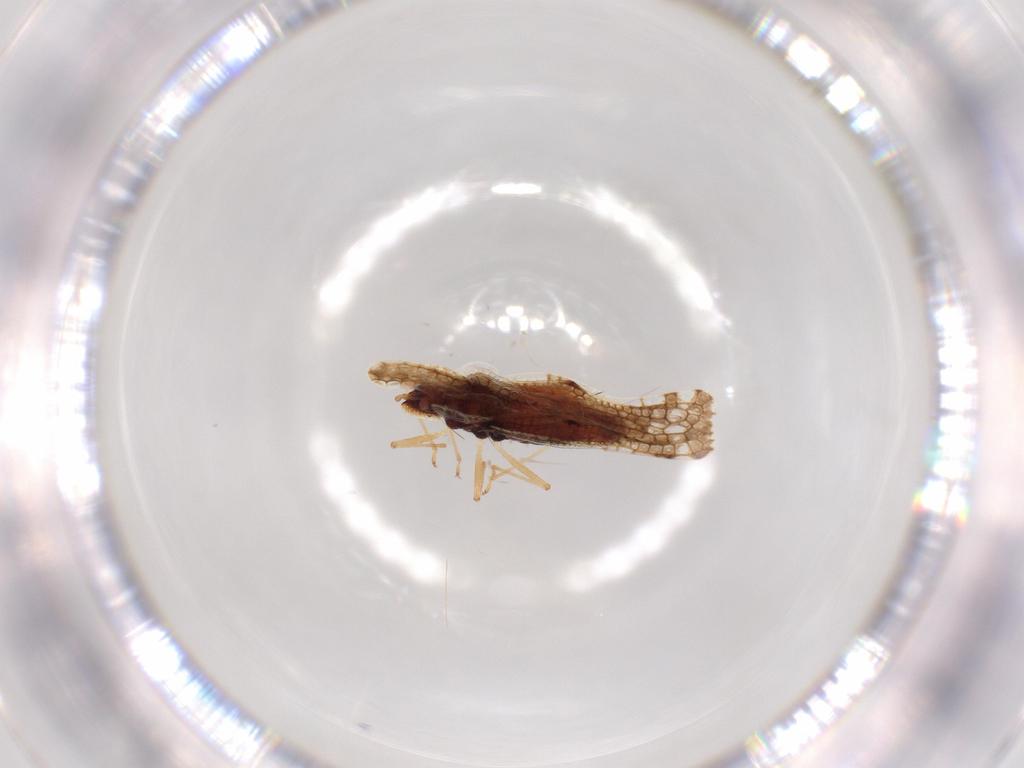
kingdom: Animalia
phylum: Arthropoda
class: Insecta
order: Hemiptera
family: Tingidae
